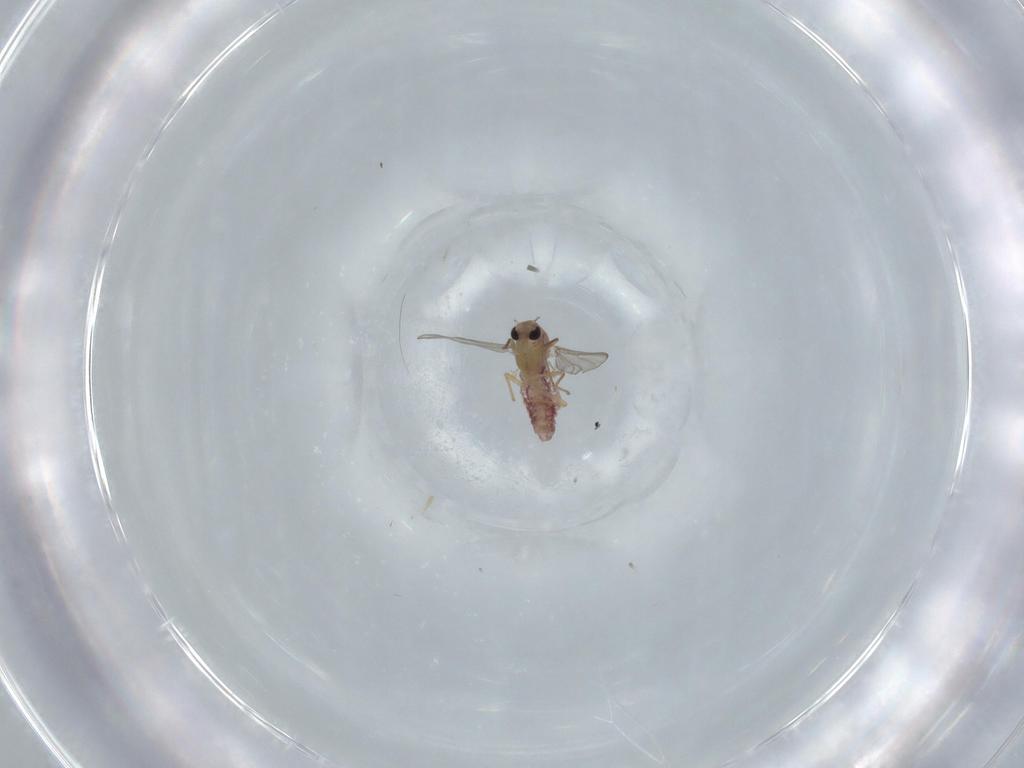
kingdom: Animalia
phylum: Arthropoda
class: Insecta
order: Diptera
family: Chironomidae
